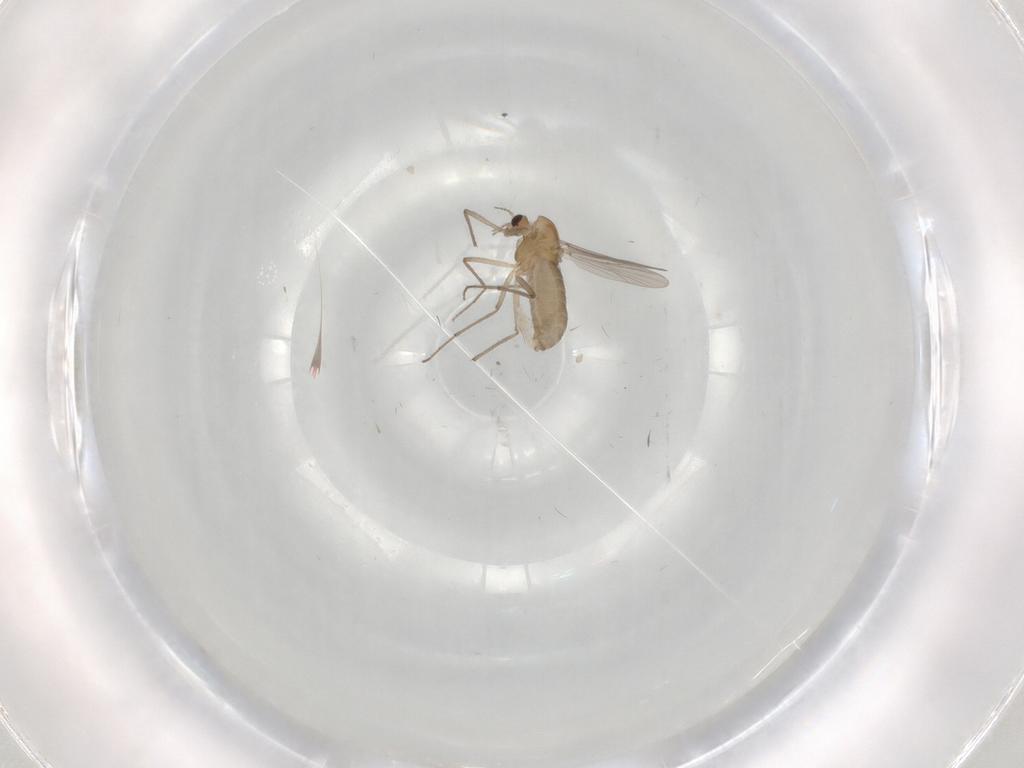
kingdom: Animalia
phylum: Arthropoda
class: Insecta
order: Diptera
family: Chironomidae
